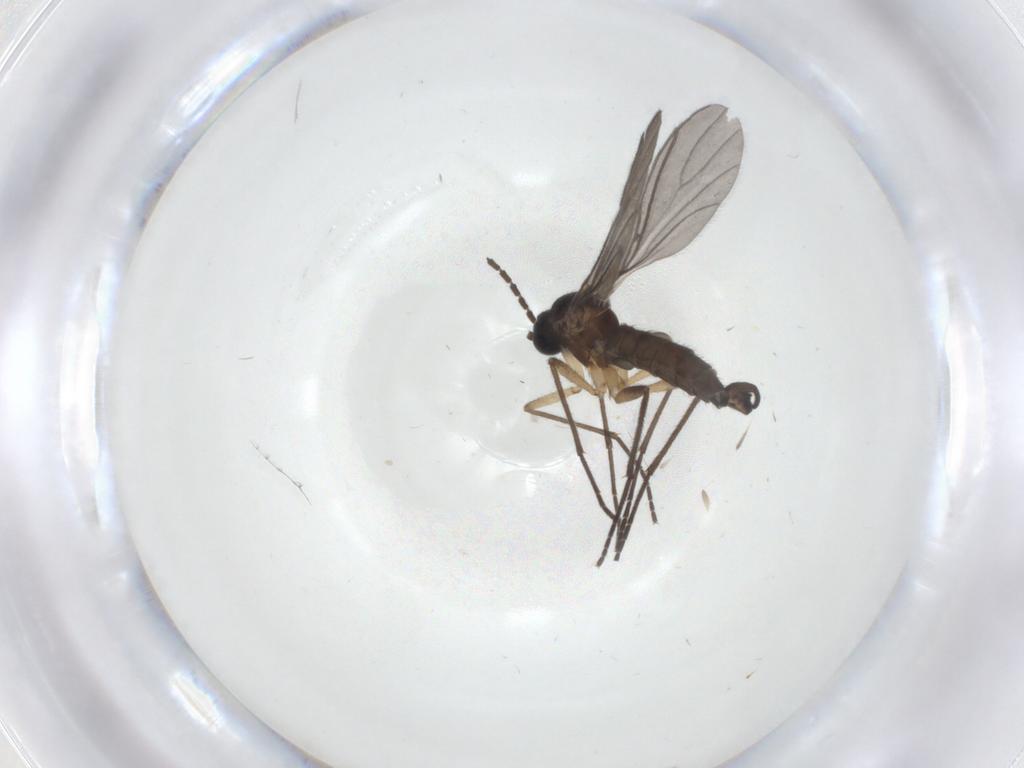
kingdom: Animalia
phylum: Arthropoda
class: Insecta
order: Diptera
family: Sciaridae
